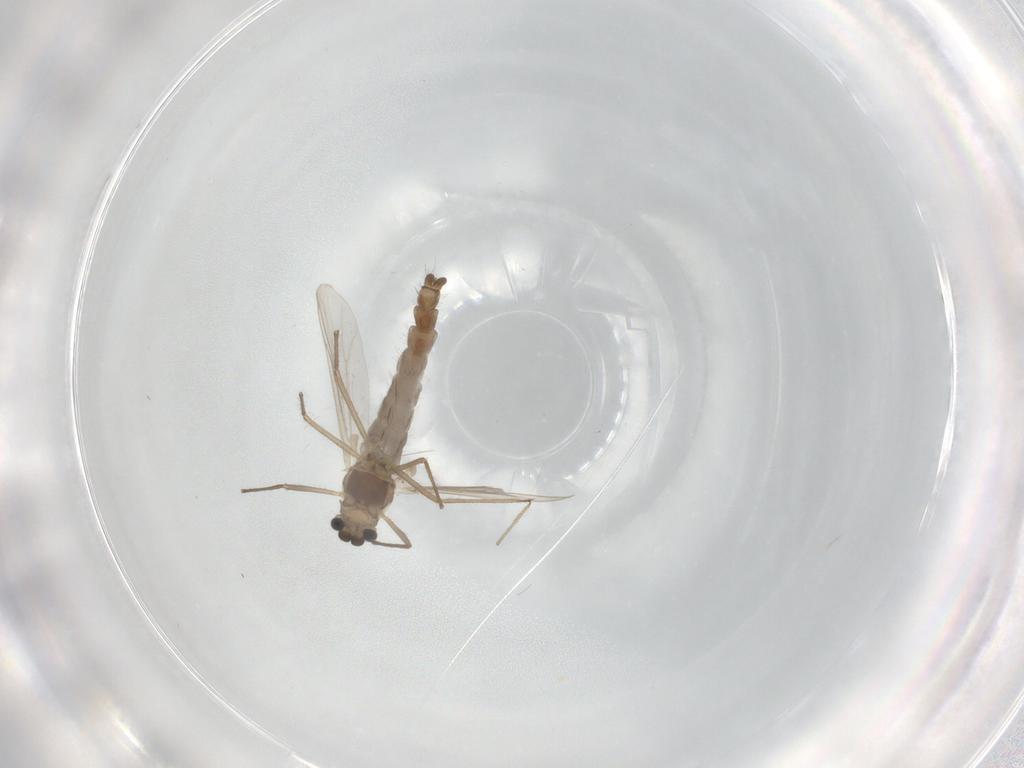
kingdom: Animalia
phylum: Arthropoda
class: Insecta
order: Diptera
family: Chironomidae
